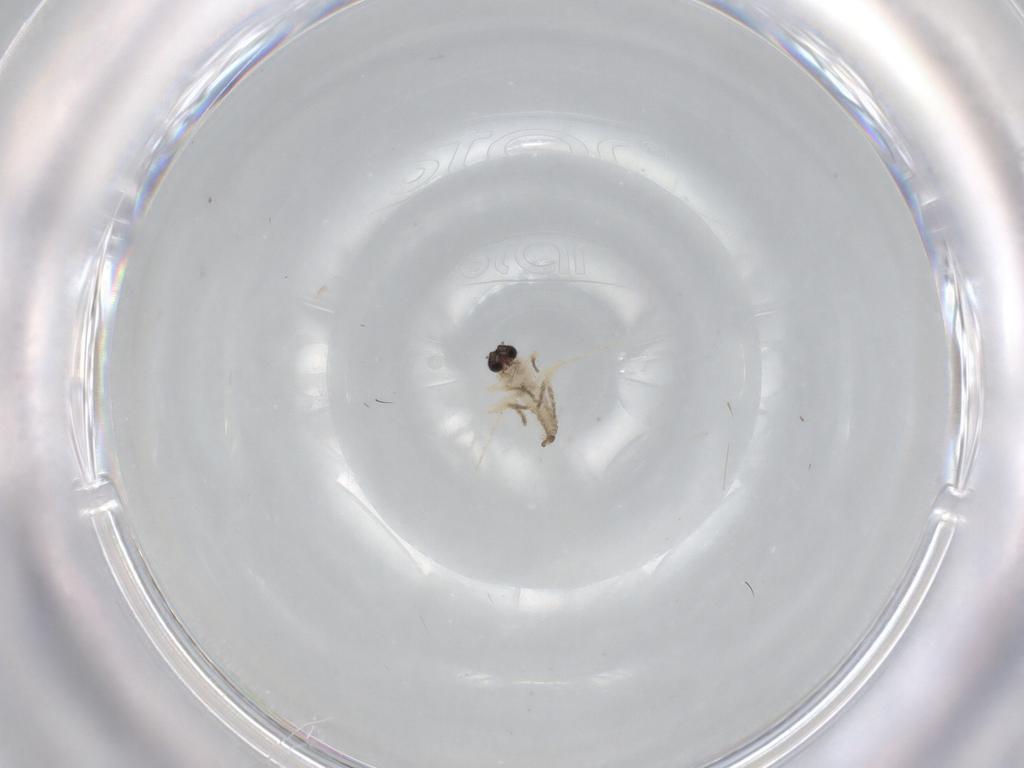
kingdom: Animalia
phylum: Arthropoda
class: Insecta
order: Diptera
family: Ceratopogonidae
